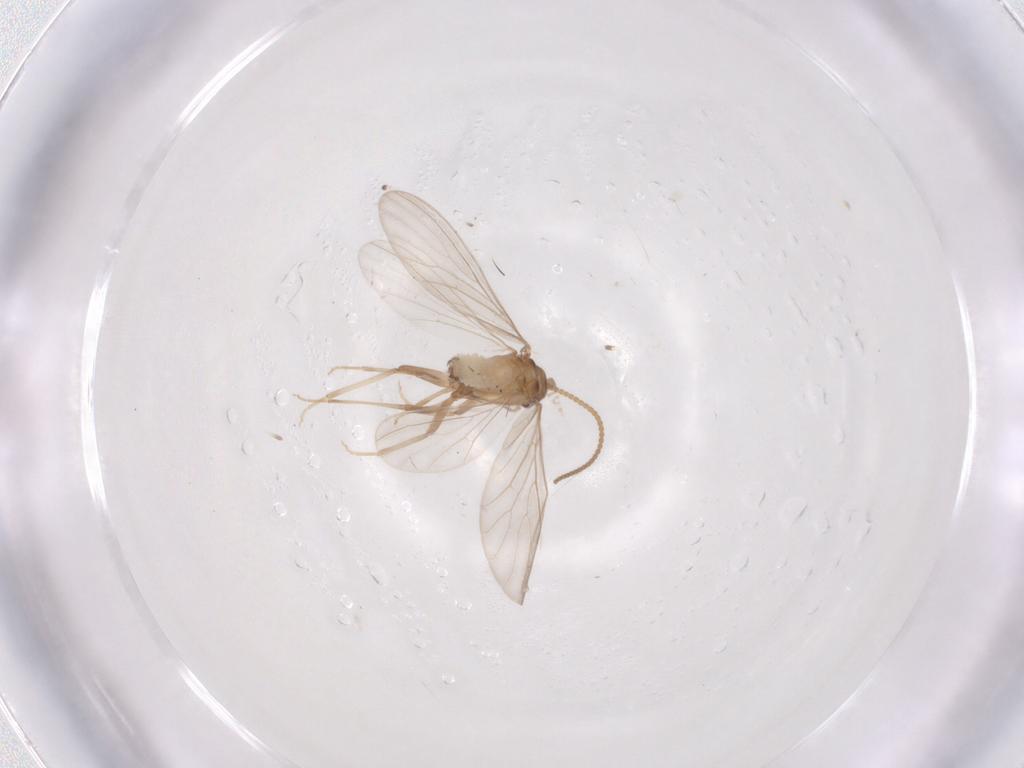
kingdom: Animalia
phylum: Arthropoda
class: Insecta
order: Neuroptera
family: Coniopterygidae
